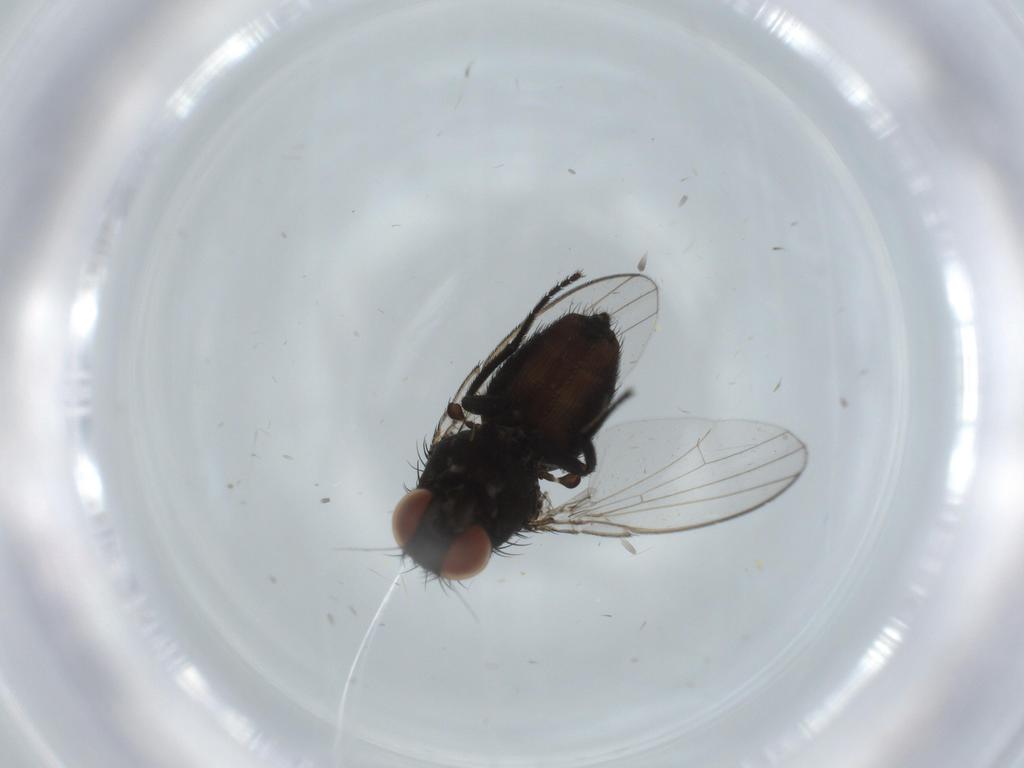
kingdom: Animalia
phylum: Arthropoda
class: Insecta
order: Diptera
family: Milichiidae
